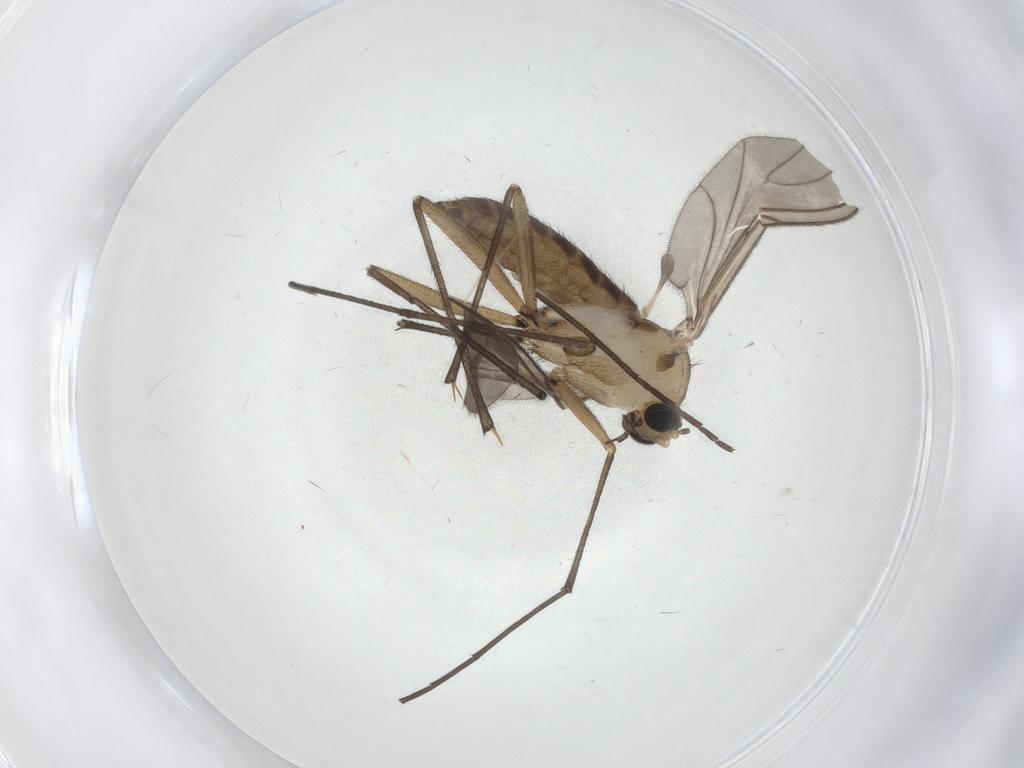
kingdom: Animalia
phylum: Arthropoda
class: Insecta
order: Diptera
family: Sciaridae
